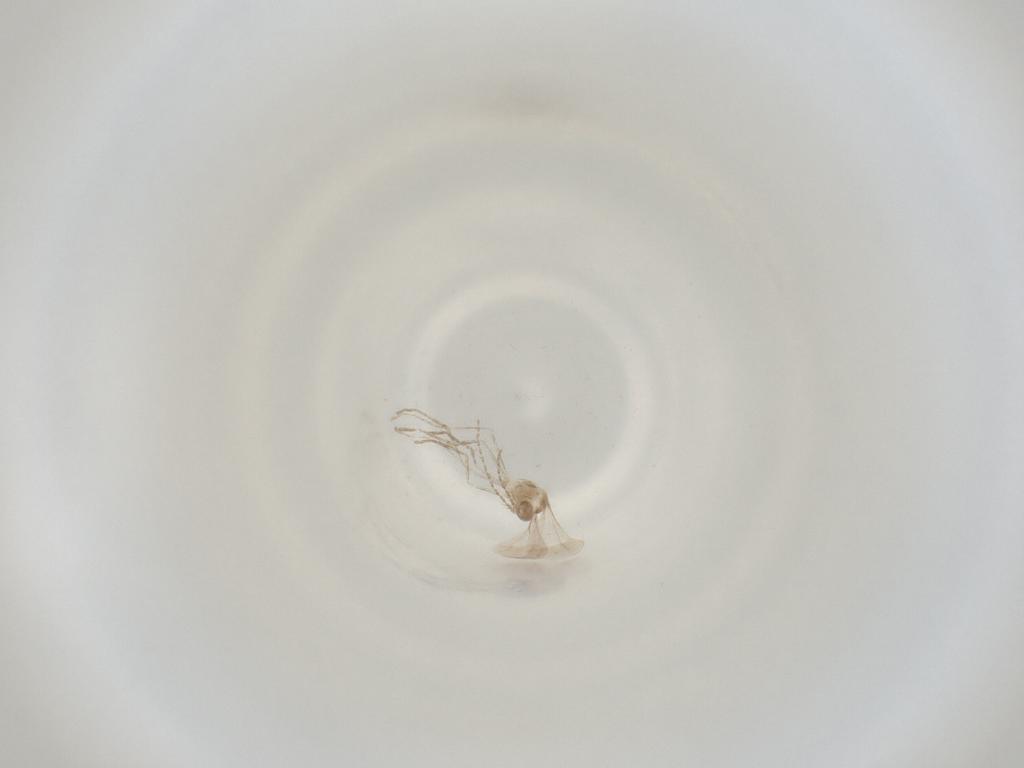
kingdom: Animalia
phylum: Arthropoda
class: Insecta
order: Diptera
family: Cecidomyiidae
